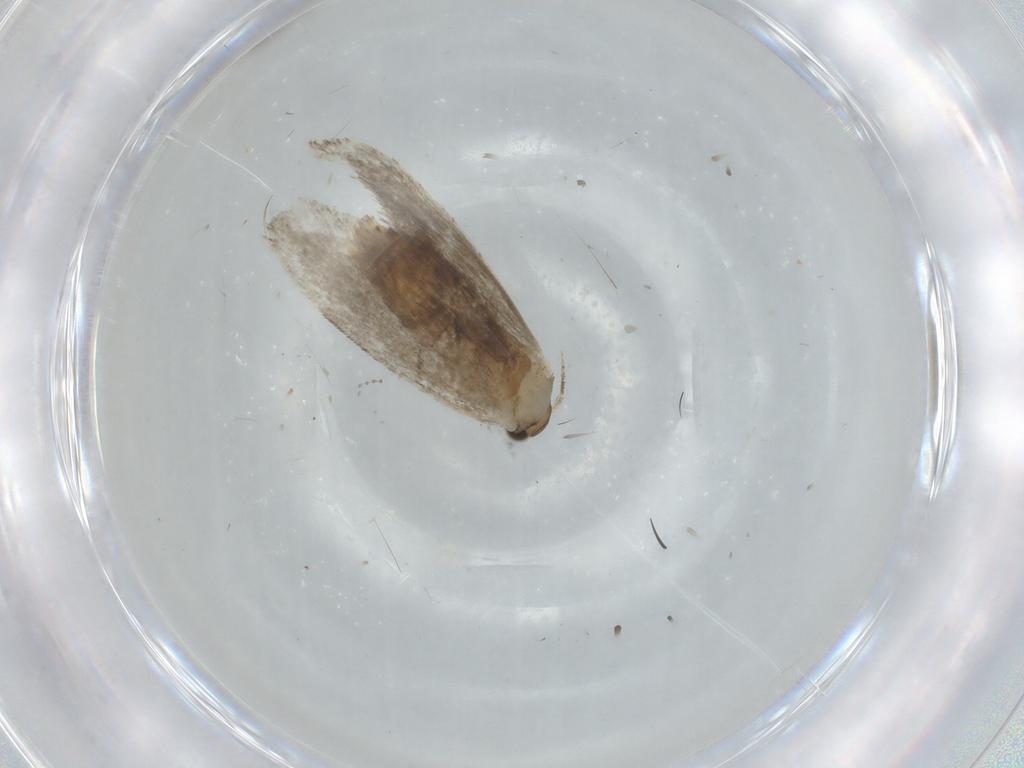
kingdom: Animalia
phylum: Arthropoda
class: Insecta
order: Lepidoptera
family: Tineidae
